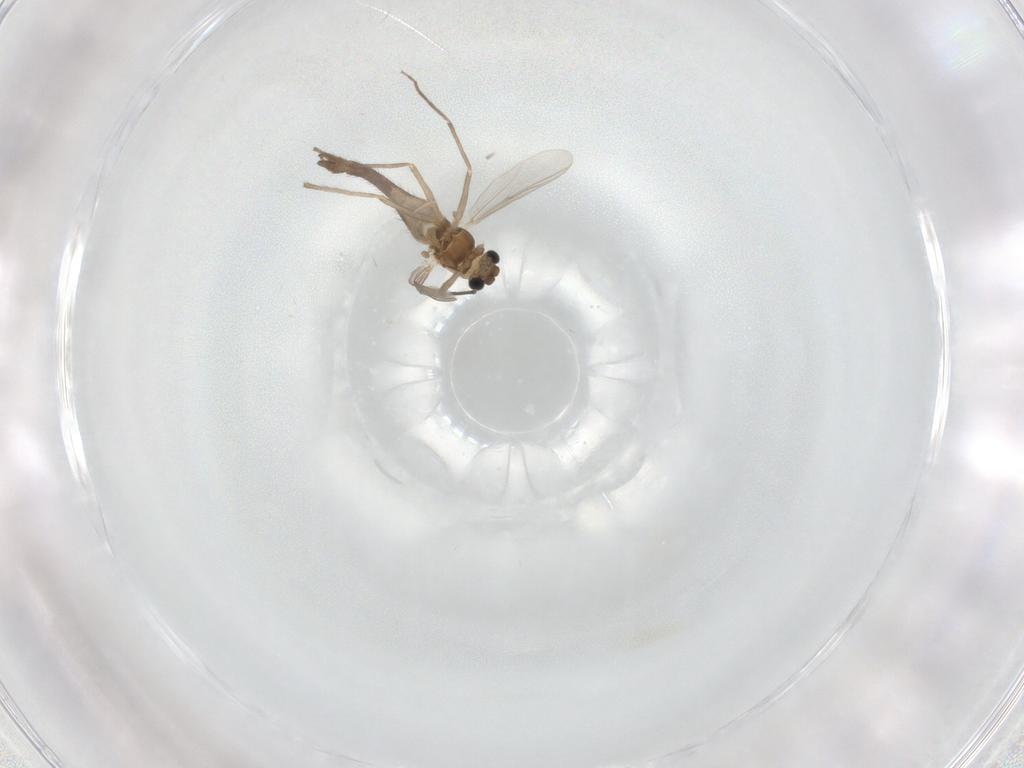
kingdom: Animalia
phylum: Arthropoda
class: Insecta
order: Diptera
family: Chironomidae
